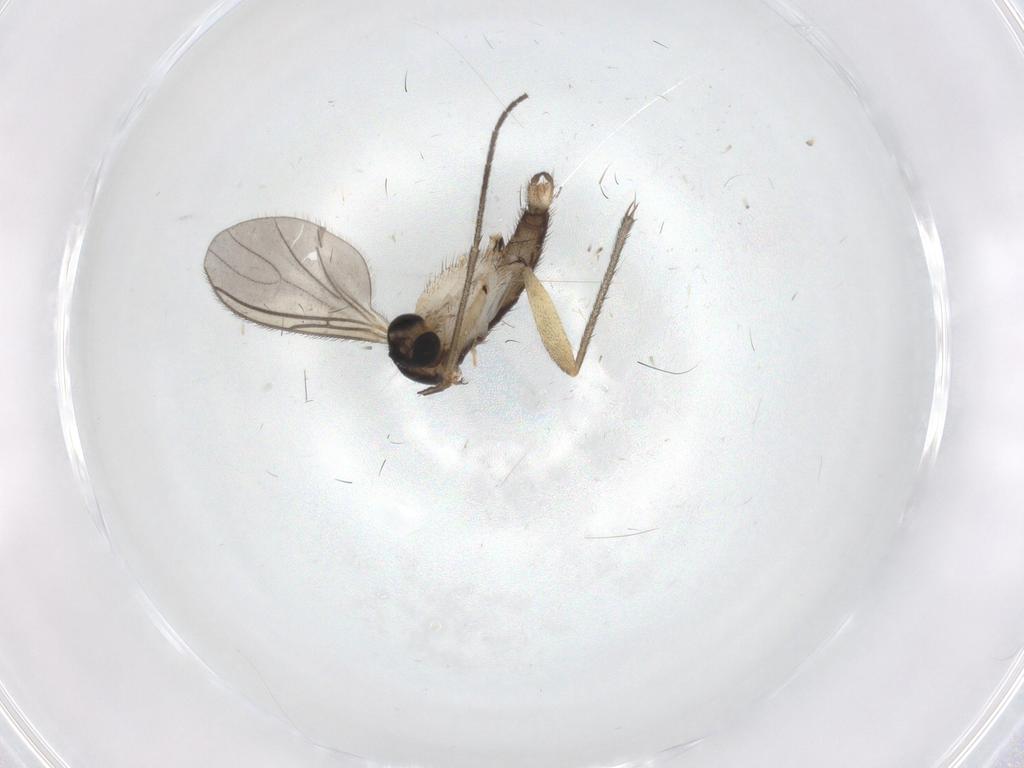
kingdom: Animalia
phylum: Arthropoda
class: Insecta
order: Diptera
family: Sciaridae
